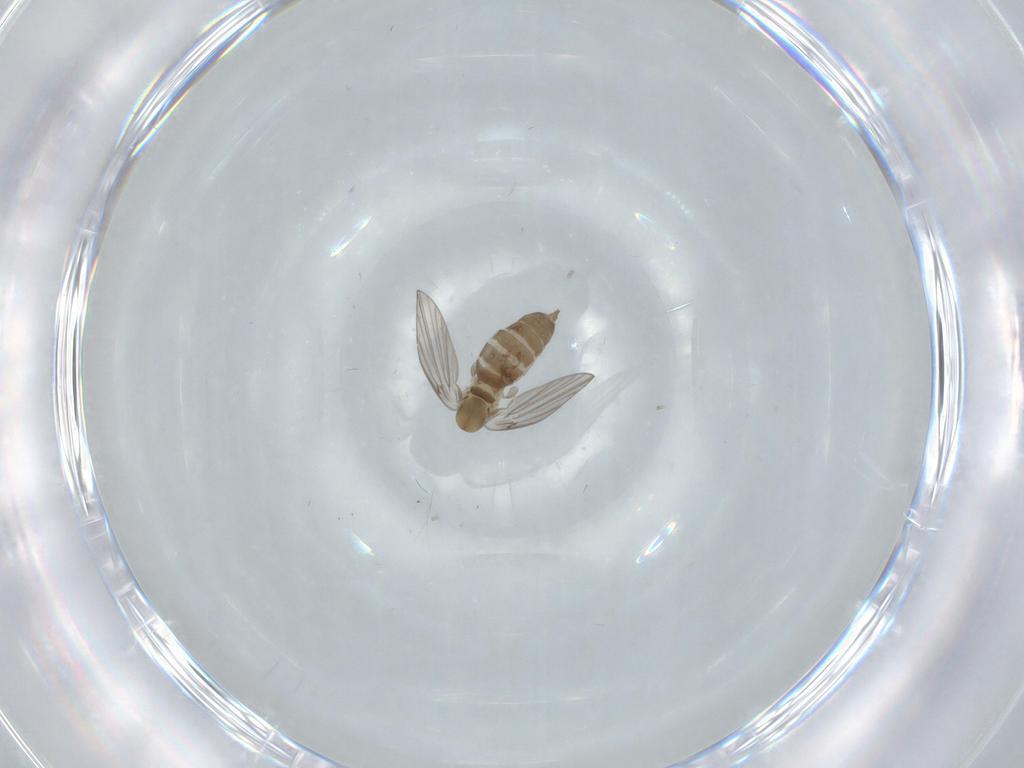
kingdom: Animalia
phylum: Arthropoda
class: Insecta
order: Diptera
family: Psychodidae
